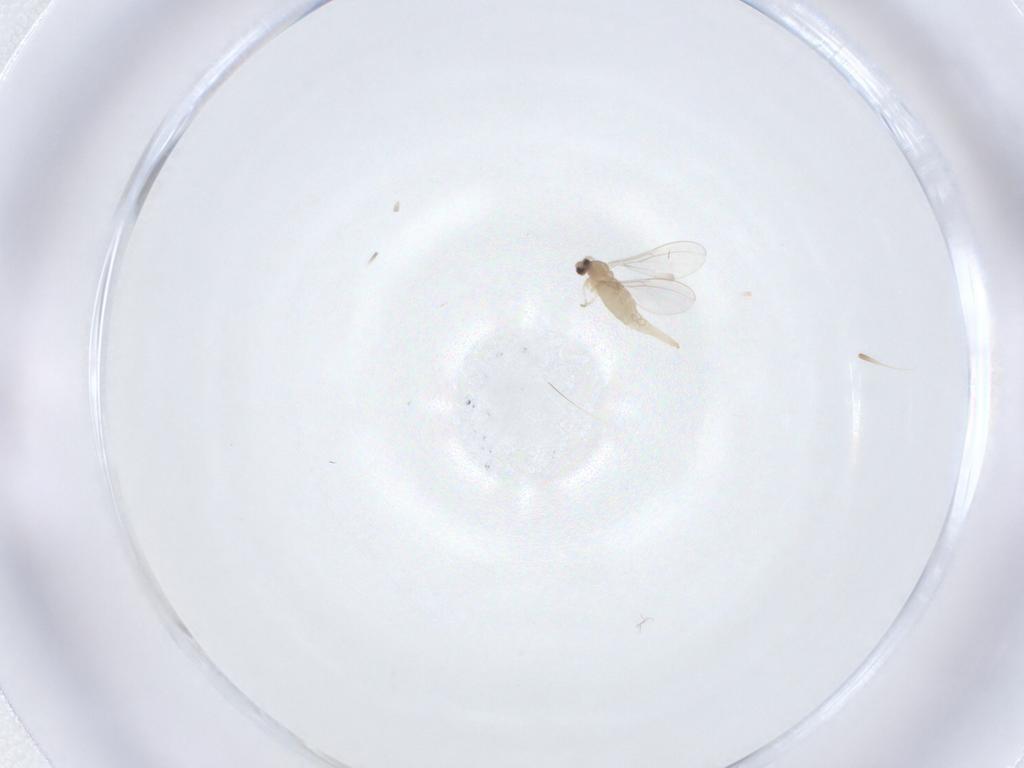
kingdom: Animalia
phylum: Arthropoda
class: Insecta
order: Diptera
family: Cecidomyiidae
